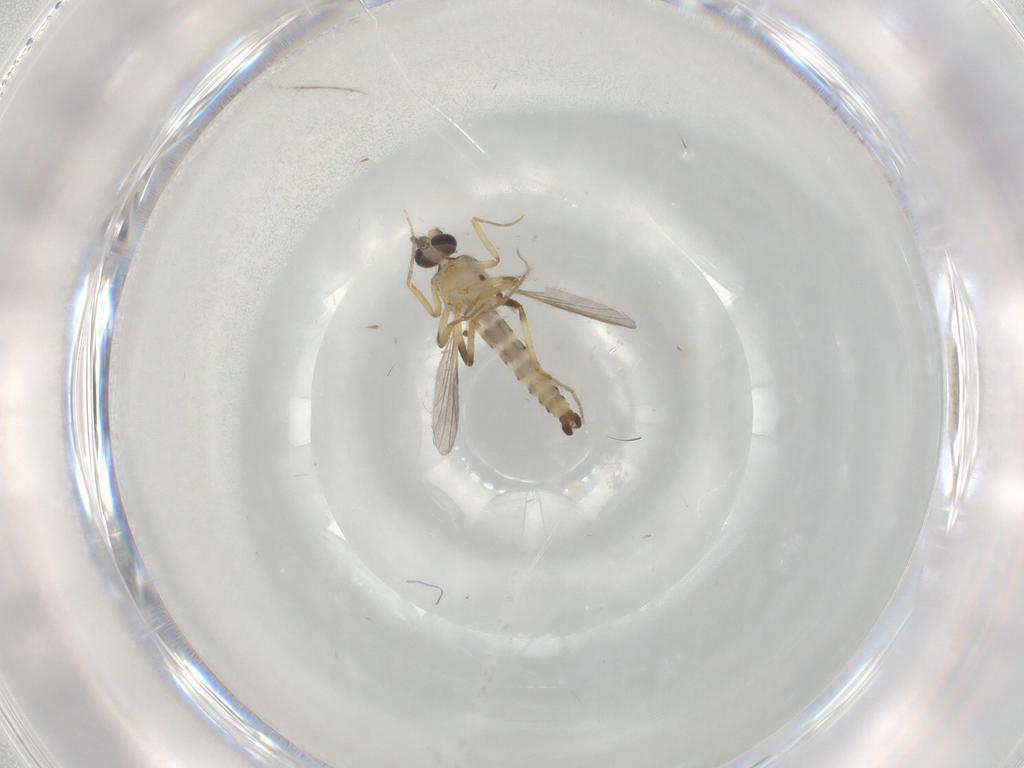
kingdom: Animalia
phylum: Arthropoda
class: Insecta
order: Diptera
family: Ceratopogonidae
